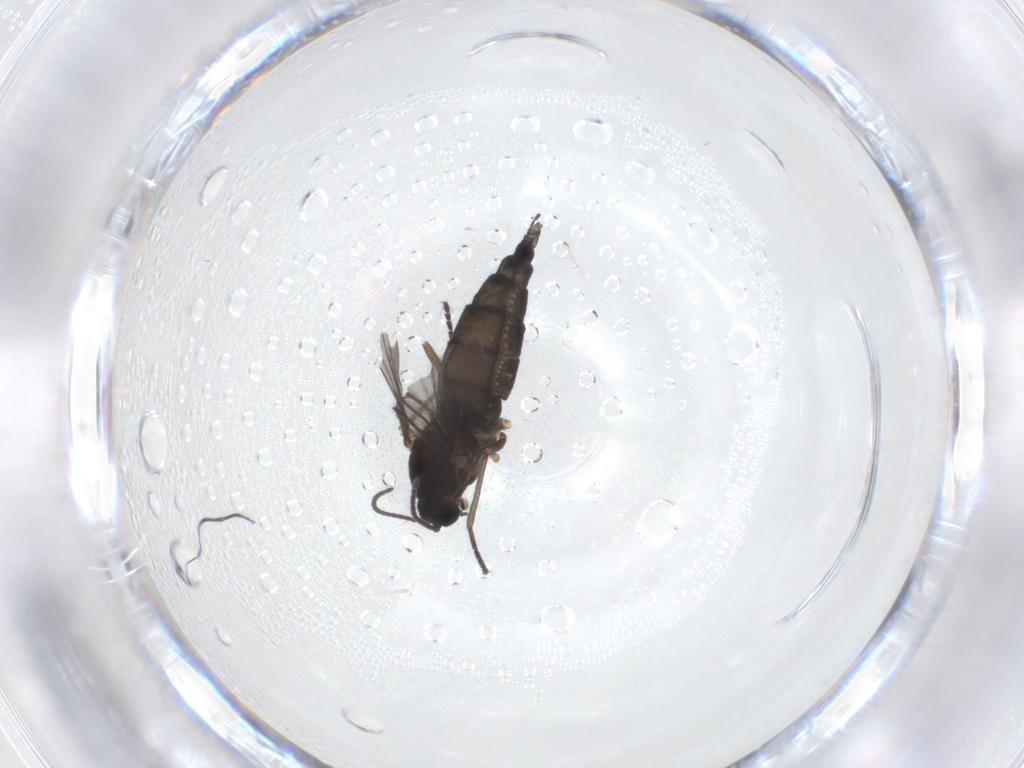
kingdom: Animalia
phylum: Arthropoda
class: Insecta
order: Diptera
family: Sciaridae
